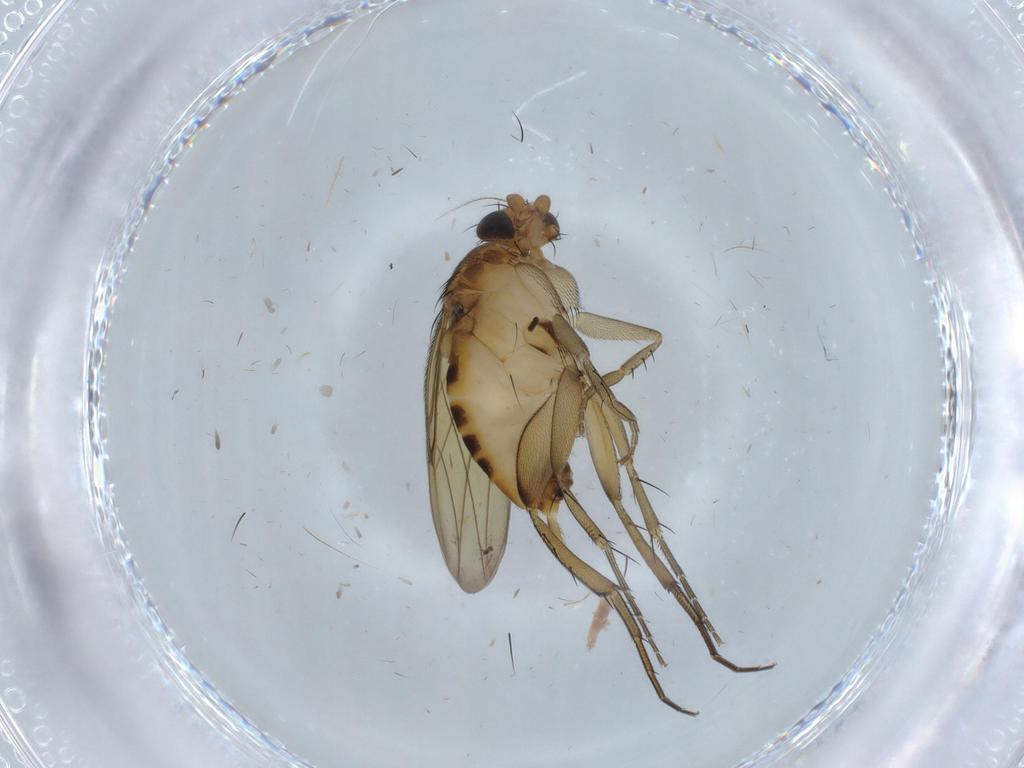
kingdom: Animalia
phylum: Arthropoda
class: Insecta
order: Diptera
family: Phoridae
